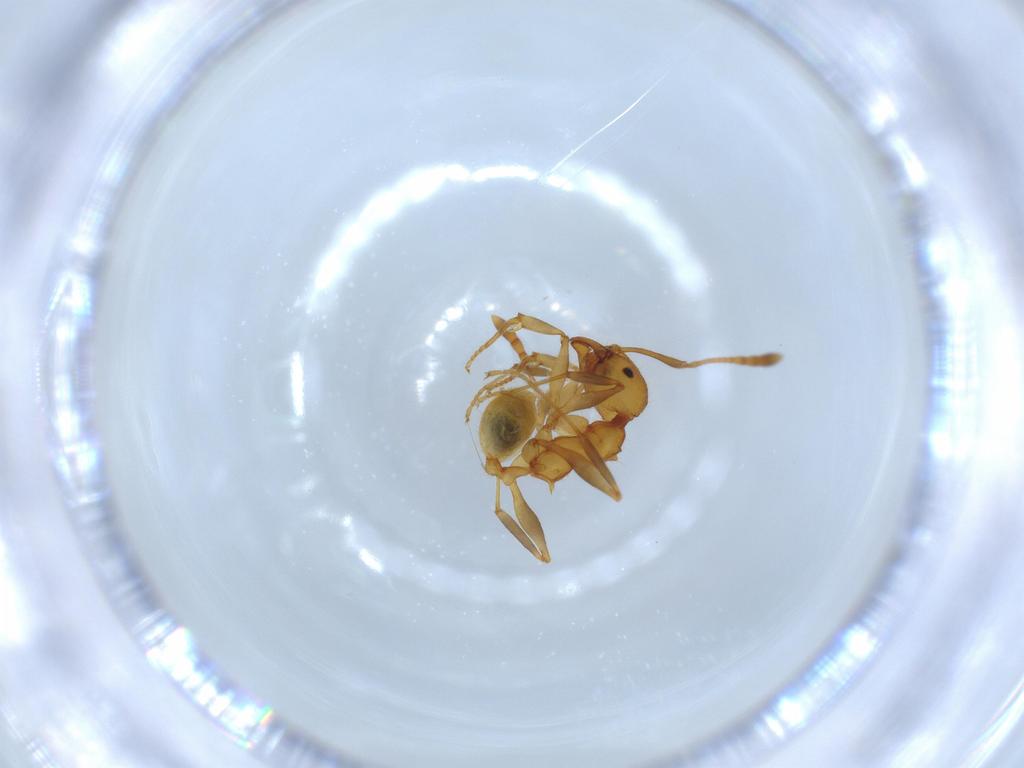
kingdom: Animalia
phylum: Arthropoda
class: Insecta
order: Hymenoptera
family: Formicidae
